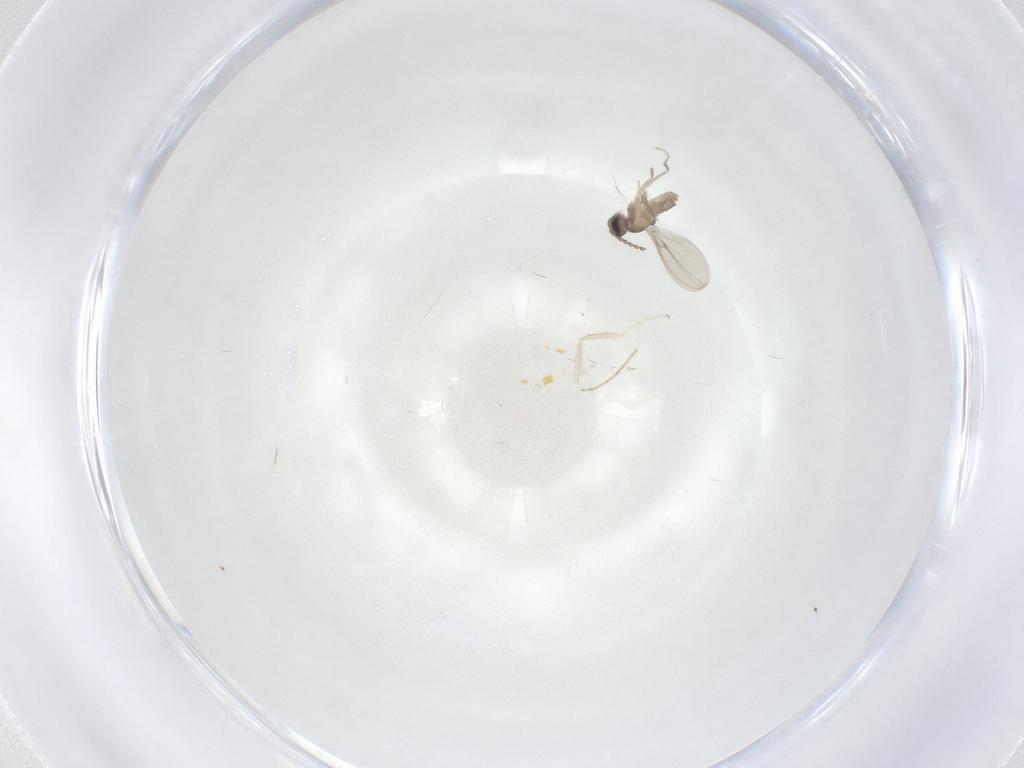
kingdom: Animalia
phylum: Arthropoda
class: Insecta
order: Diptera
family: Cecidomyiidae
